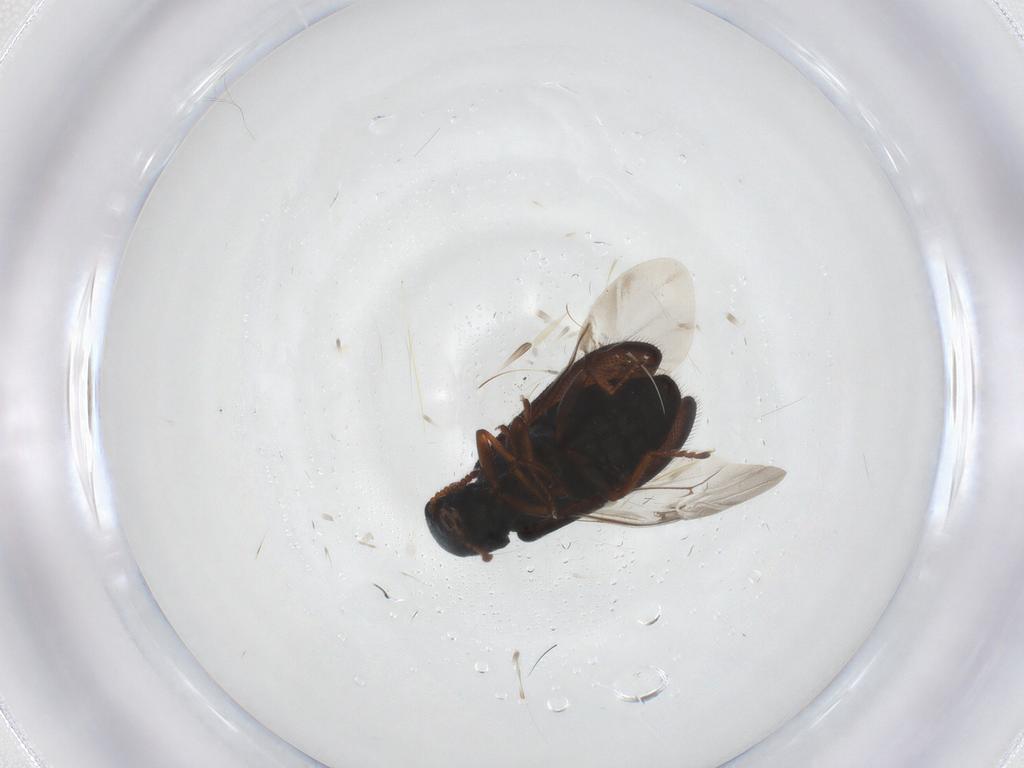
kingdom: Animalia
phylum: Arthropoda
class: Insecta
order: Coleoptera
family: Melyridae
